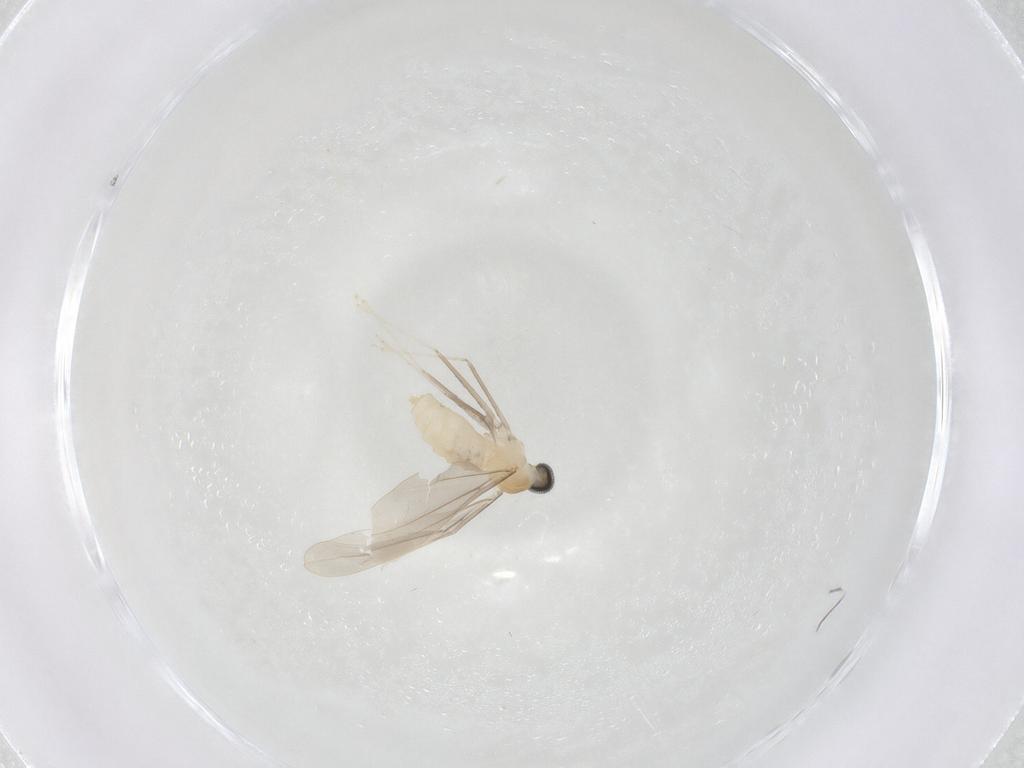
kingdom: Animalia
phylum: Arthropoda
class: Insecta
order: Diptera
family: Cecidomyiidae
